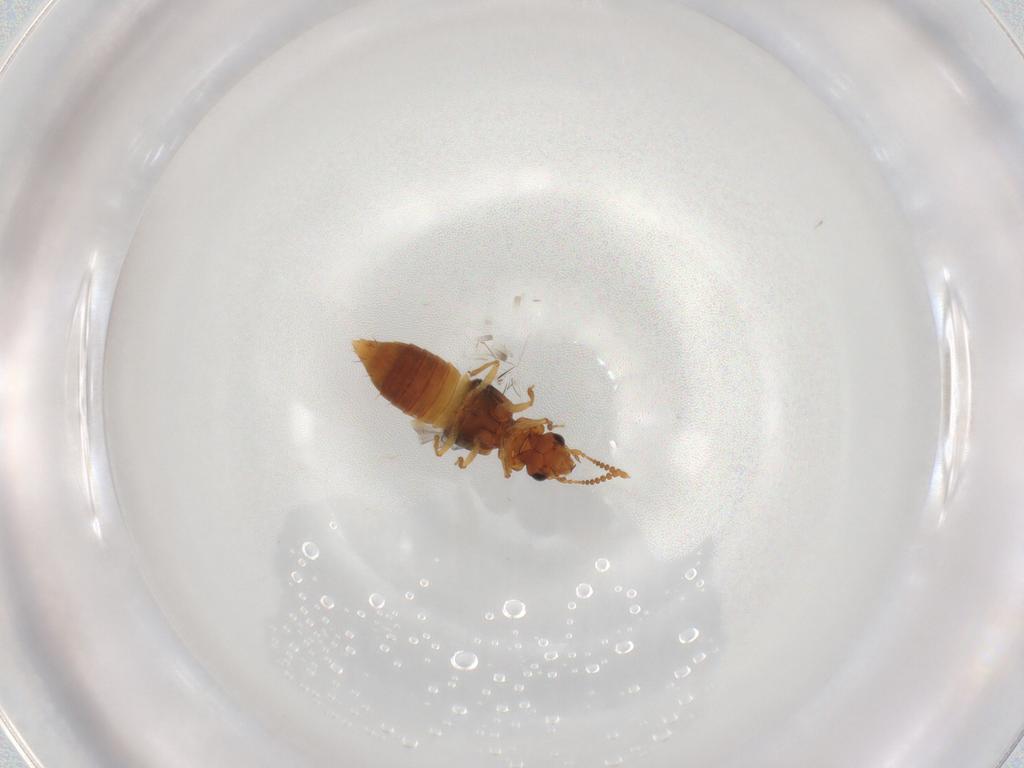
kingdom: Animalia
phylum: Arthropoda
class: Insecta
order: Coleoptera
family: Staphylinidae
